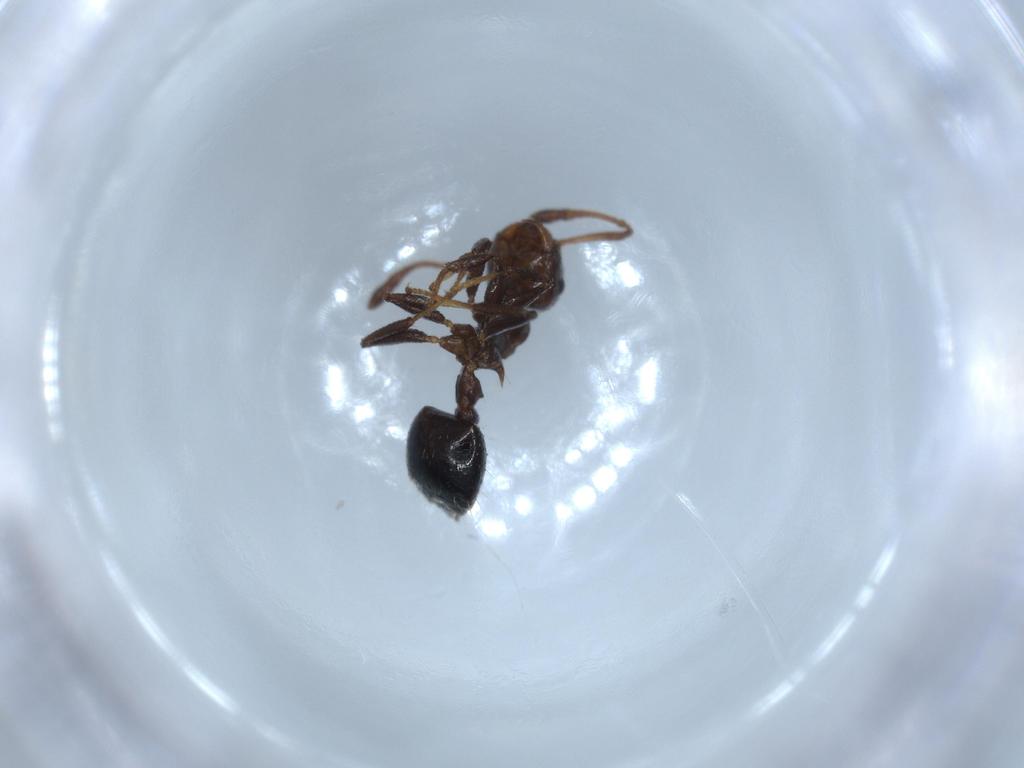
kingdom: Animalia
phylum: Arthropoda
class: Insecta
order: Hymenoptera
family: Formicidae
